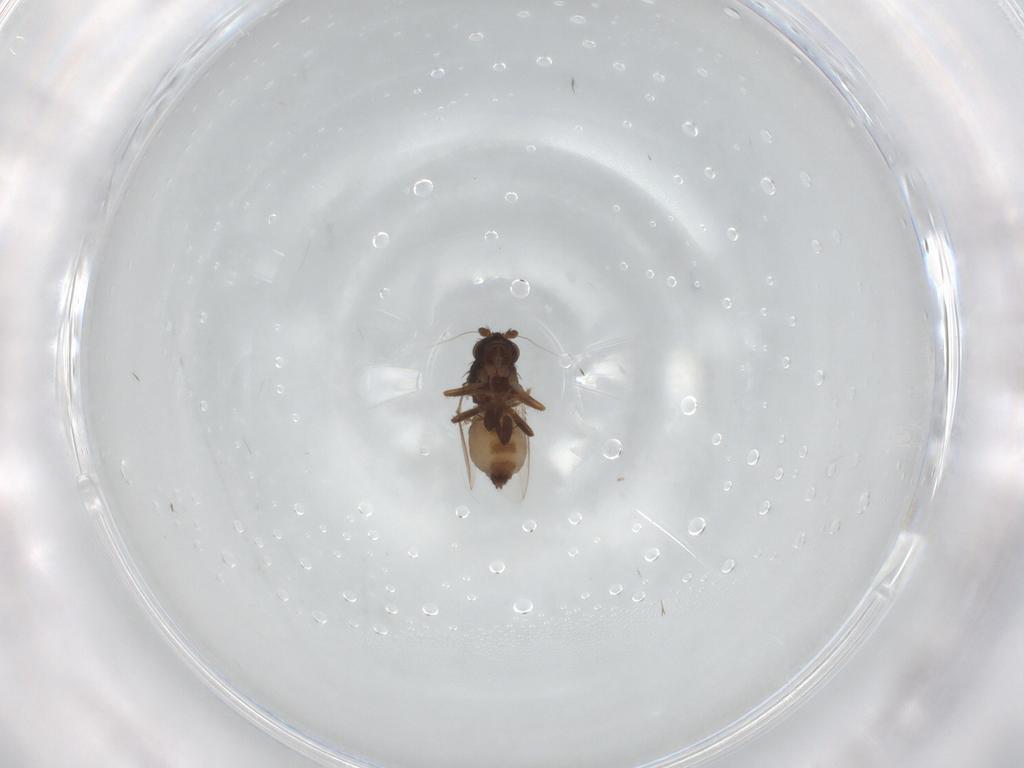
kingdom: Animalia
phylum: Arthropoda
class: Insecta
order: Diptera
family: Sphaeroceridae
